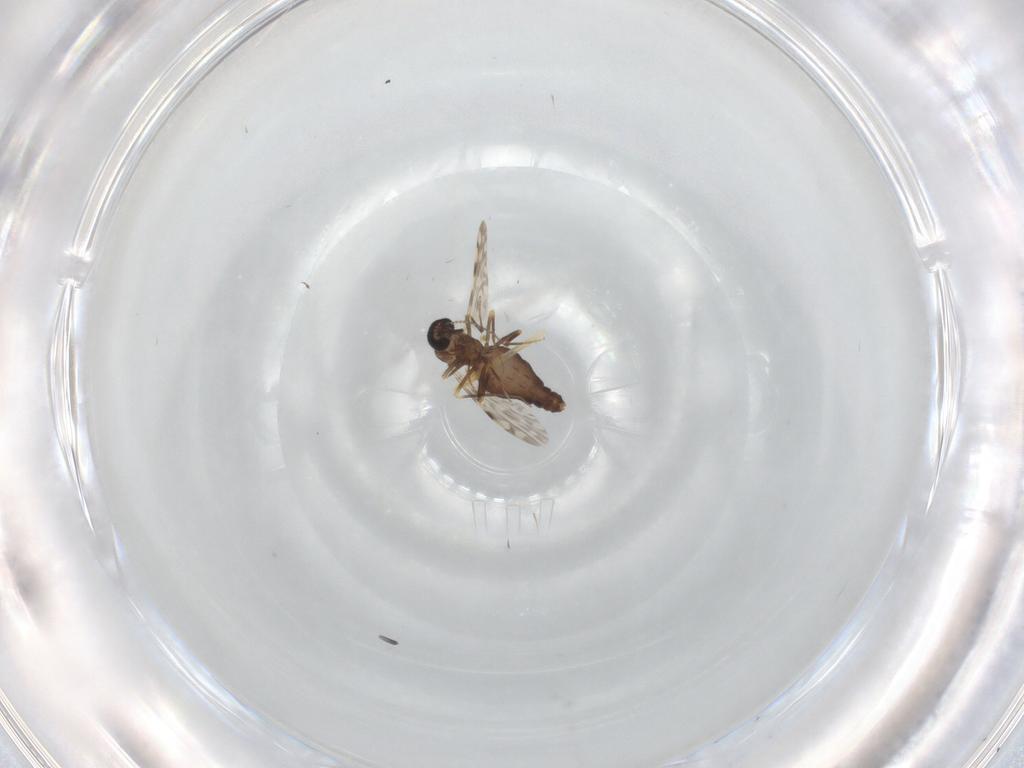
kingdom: Animalia
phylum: Arthropoda
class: Insecta
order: Diptera
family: Ceratopogonidae
